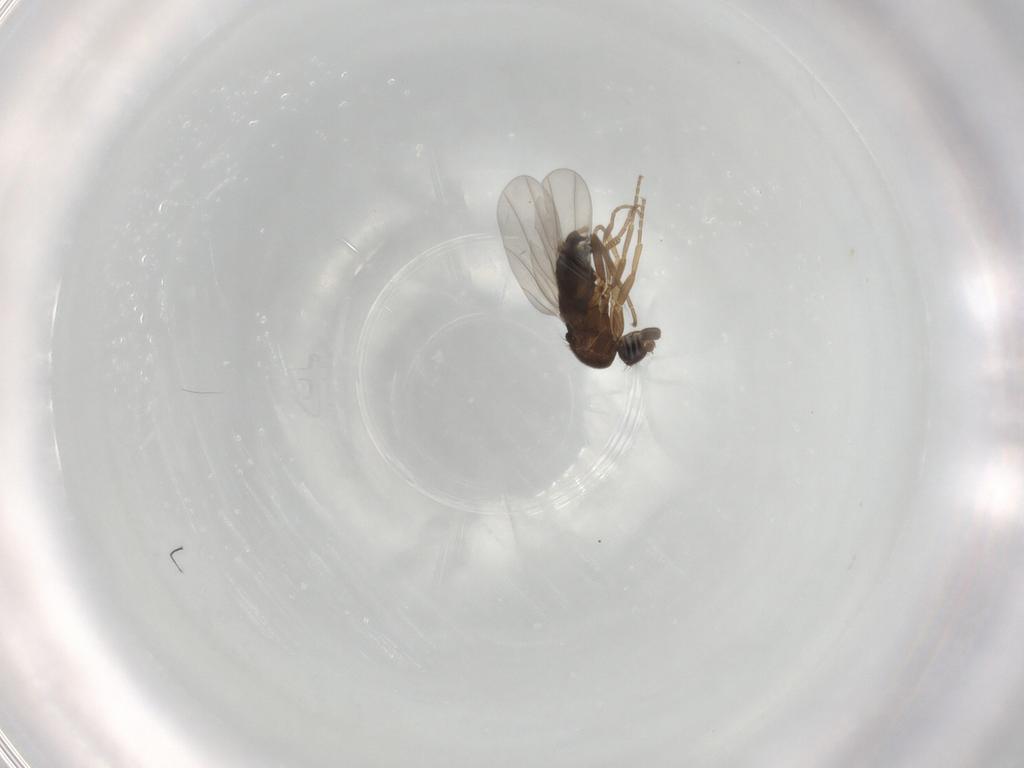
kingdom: Animalia
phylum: Arthropoda
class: Insecta
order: Diptera
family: Phoridae
